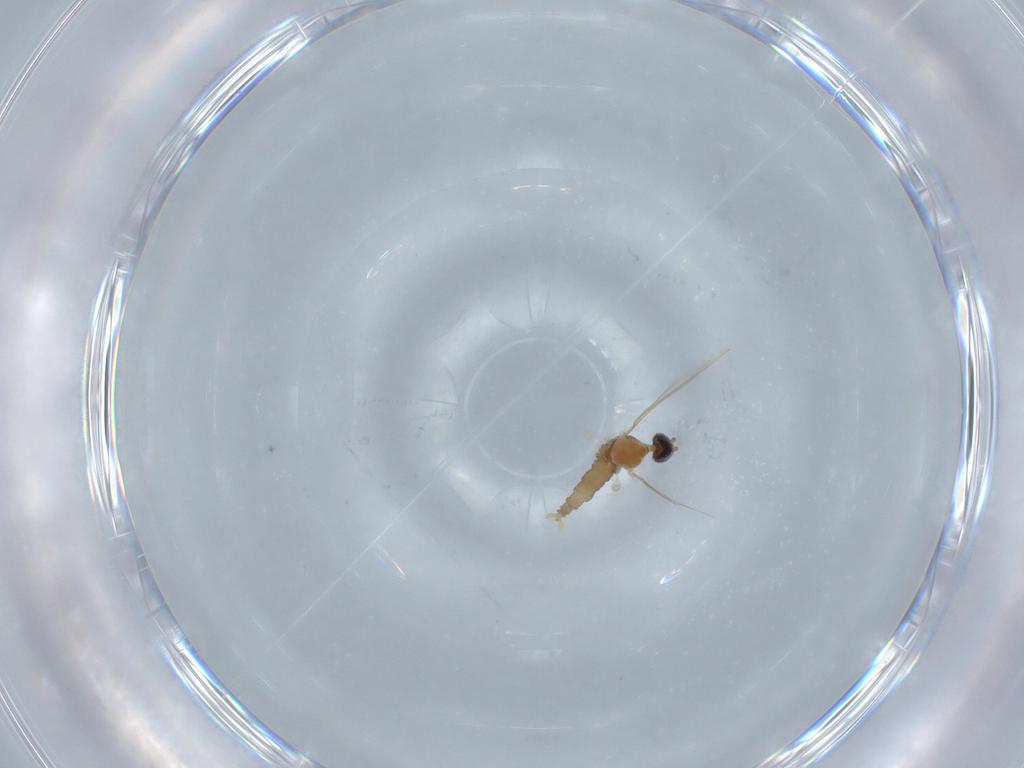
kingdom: Animalia
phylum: Arthropoda
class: Insecta
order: Diptera
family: Cecidomyiidae
